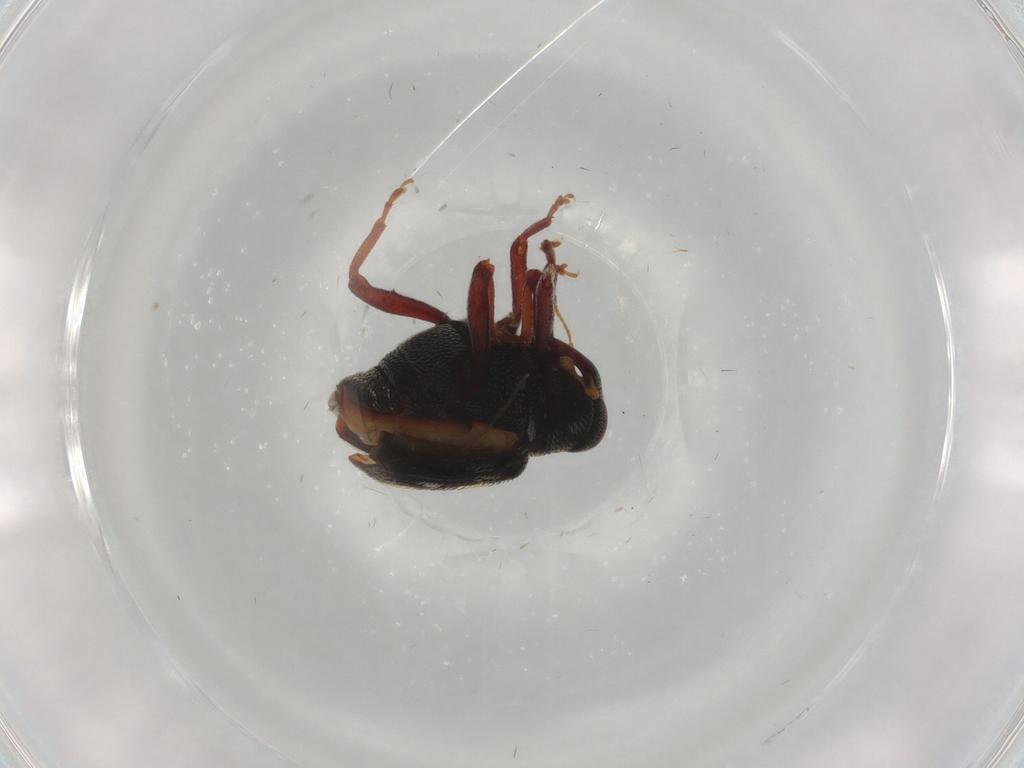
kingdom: Animalia
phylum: Arthropoda
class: Insecta
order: Coleoptera
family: Curculionidae
